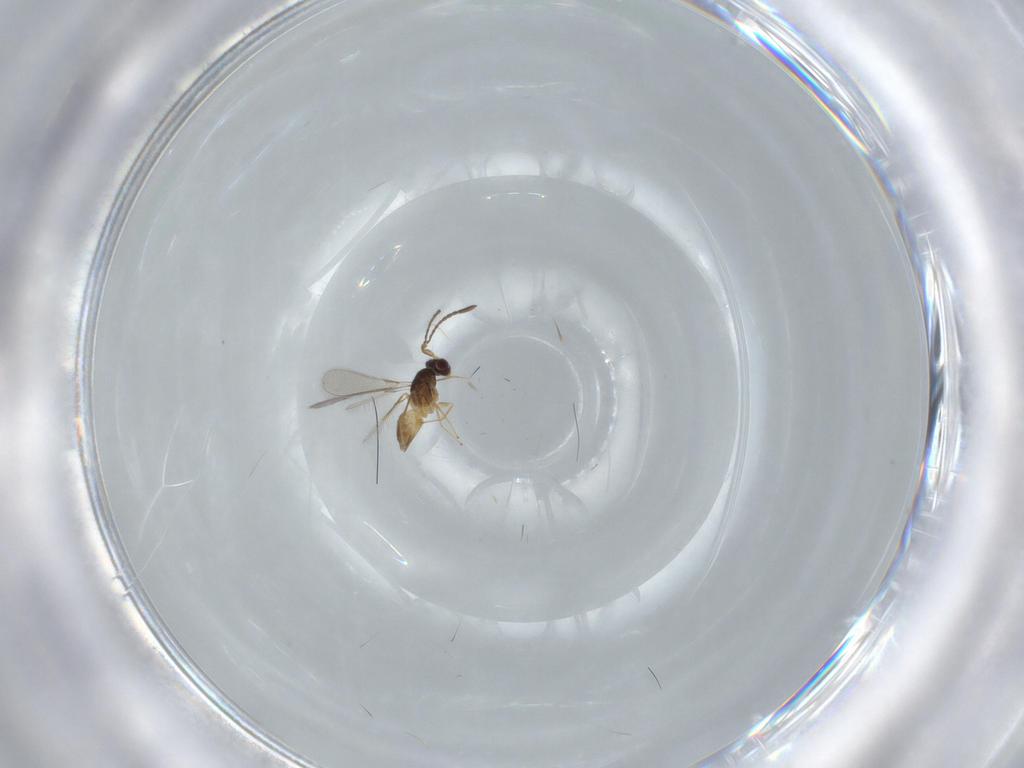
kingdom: Animalia
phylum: Arthropoda
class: Insecta
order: Hymenoptera
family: Mymaridae
